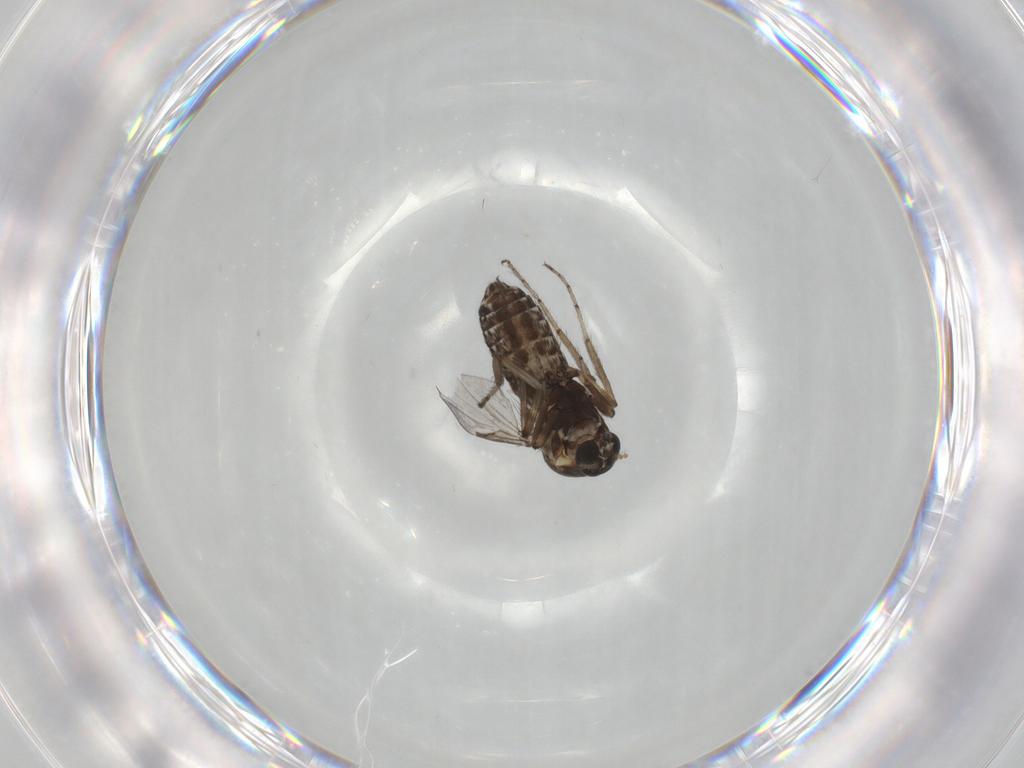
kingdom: Animalia
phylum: Arthropoda
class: Insecta
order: Diptera
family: Ceratopogonidae
